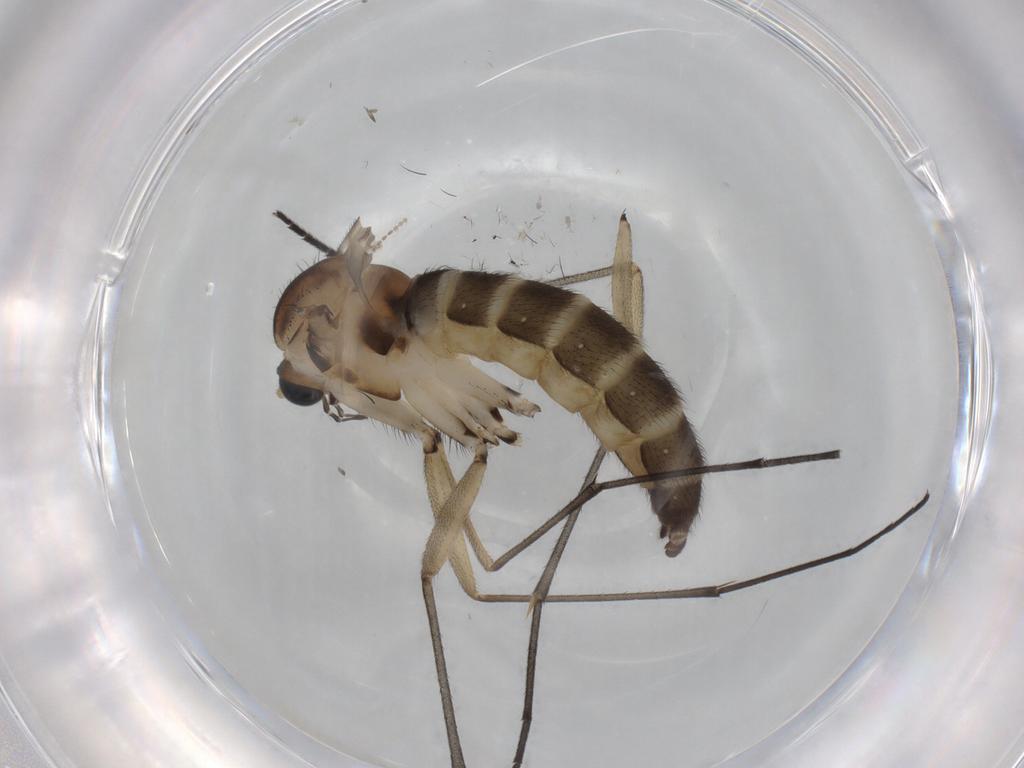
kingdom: Animalia
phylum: Arthropoda
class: Insecta
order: Diptera
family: Sciaridae
